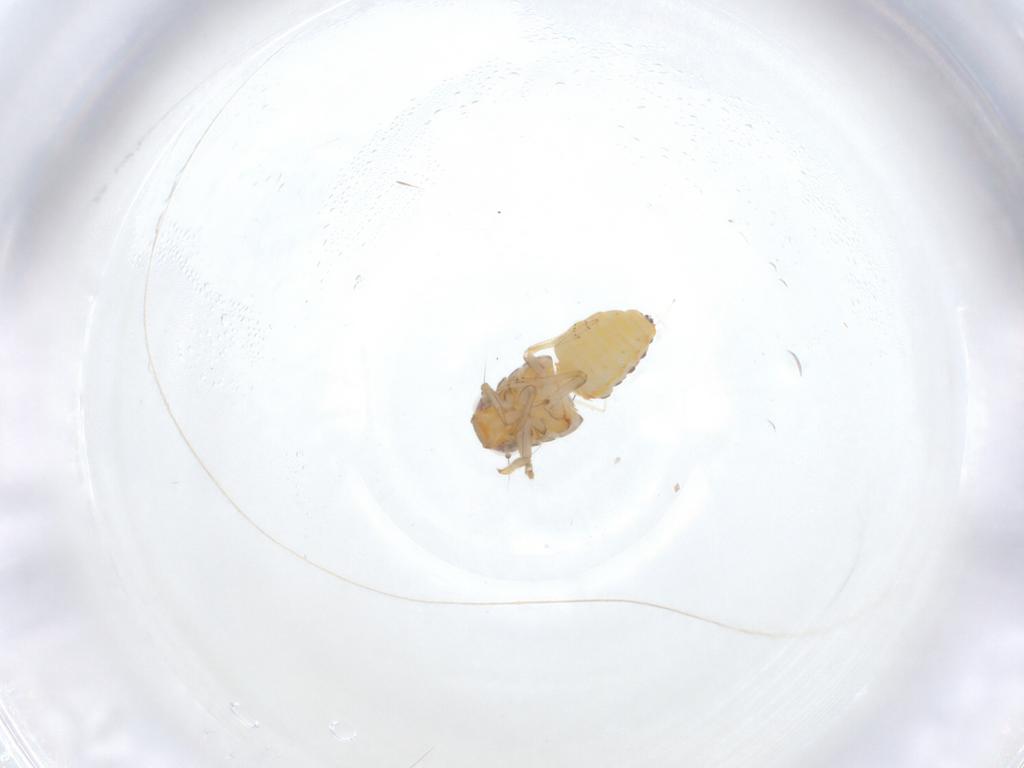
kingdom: Animalia
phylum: Arthropoda
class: Insecta
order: Hemiptera
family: Issidae
